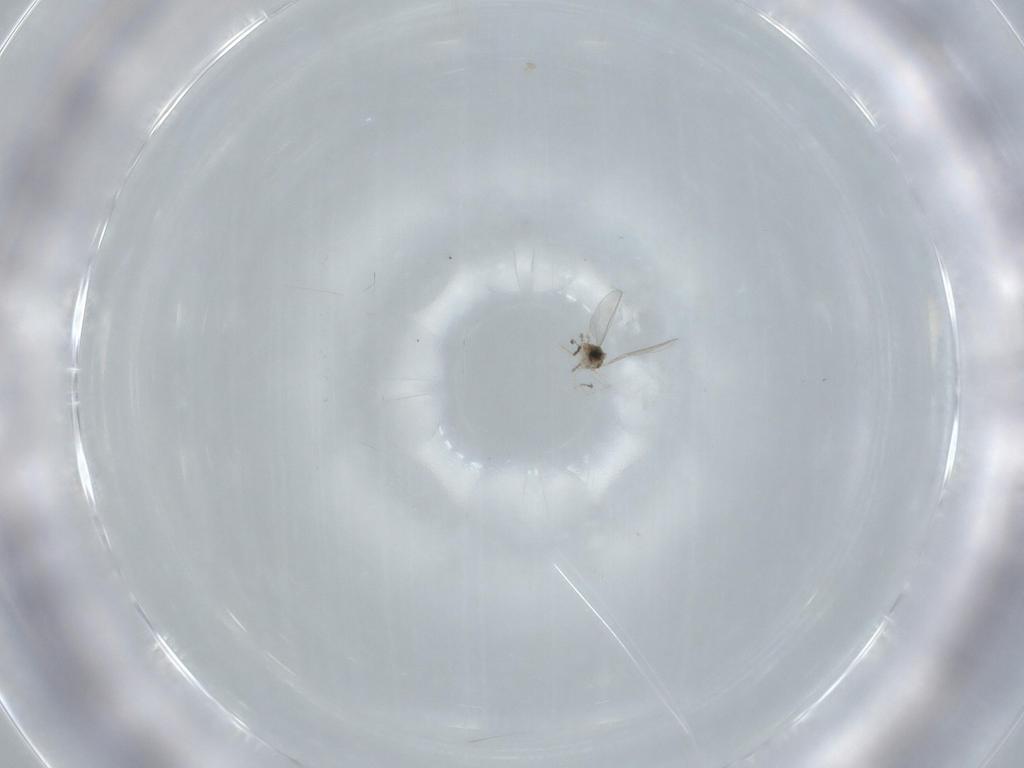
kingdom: Animalia
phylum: Arthropoda
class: Insecta
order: Diptera
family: Cecidomyiidae
